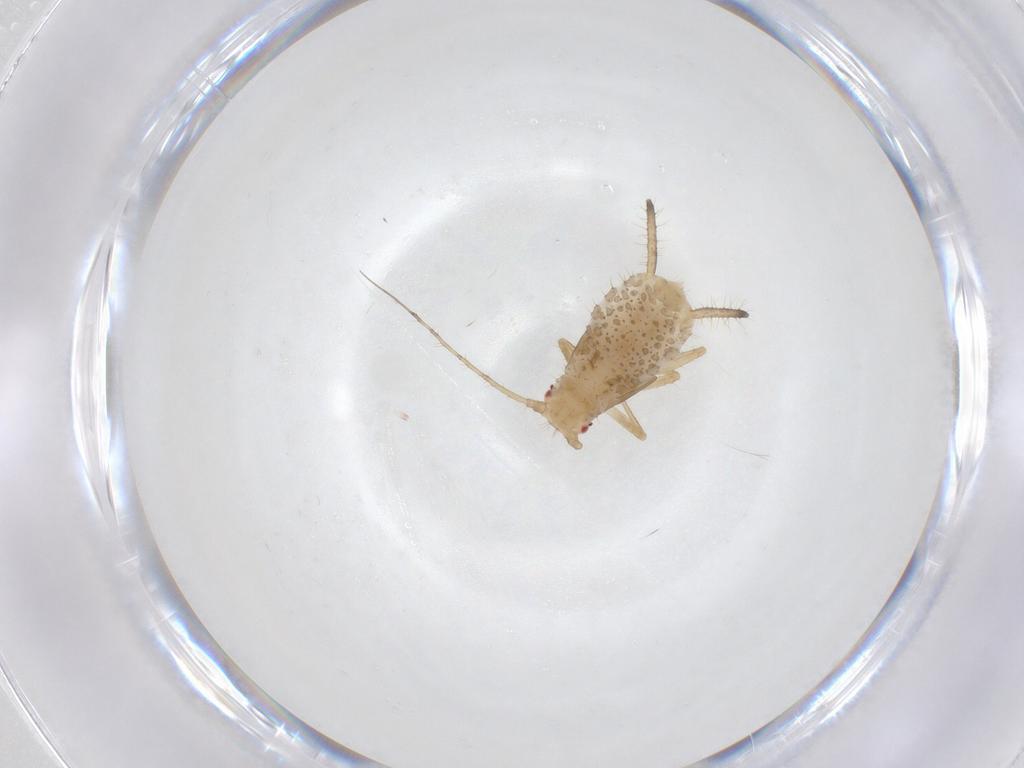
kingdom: Animalia
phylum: Arthropoda
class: Insecta
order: Hemiptera
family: Aphididae
